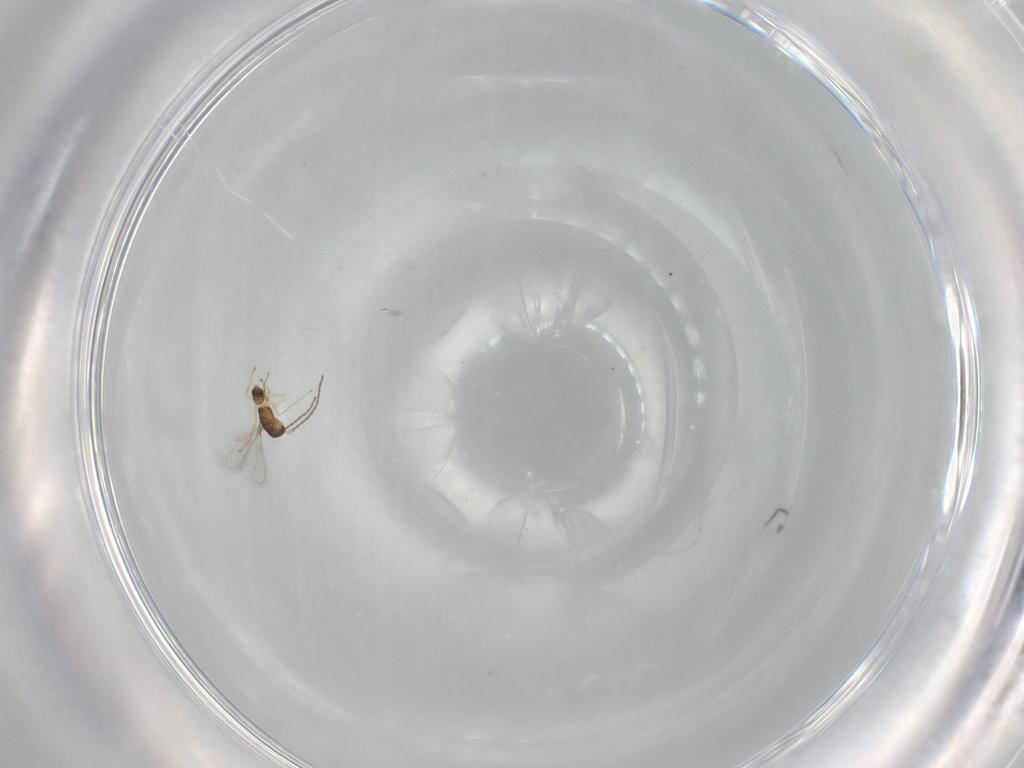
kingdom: Animalia
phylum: Arthropoda
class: Insecta
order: Hymenoptera
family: Mymaridae
